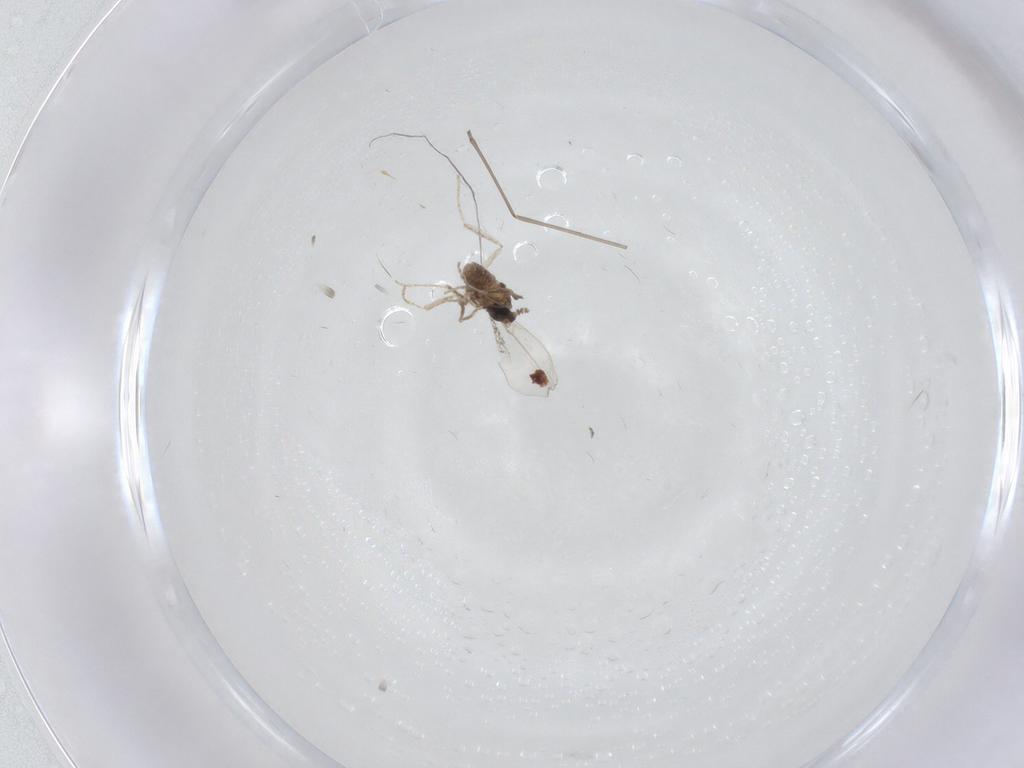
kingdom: Animalia
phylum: Arthropoda
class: Insecta
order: Diptera
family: Cecidomyiidae
